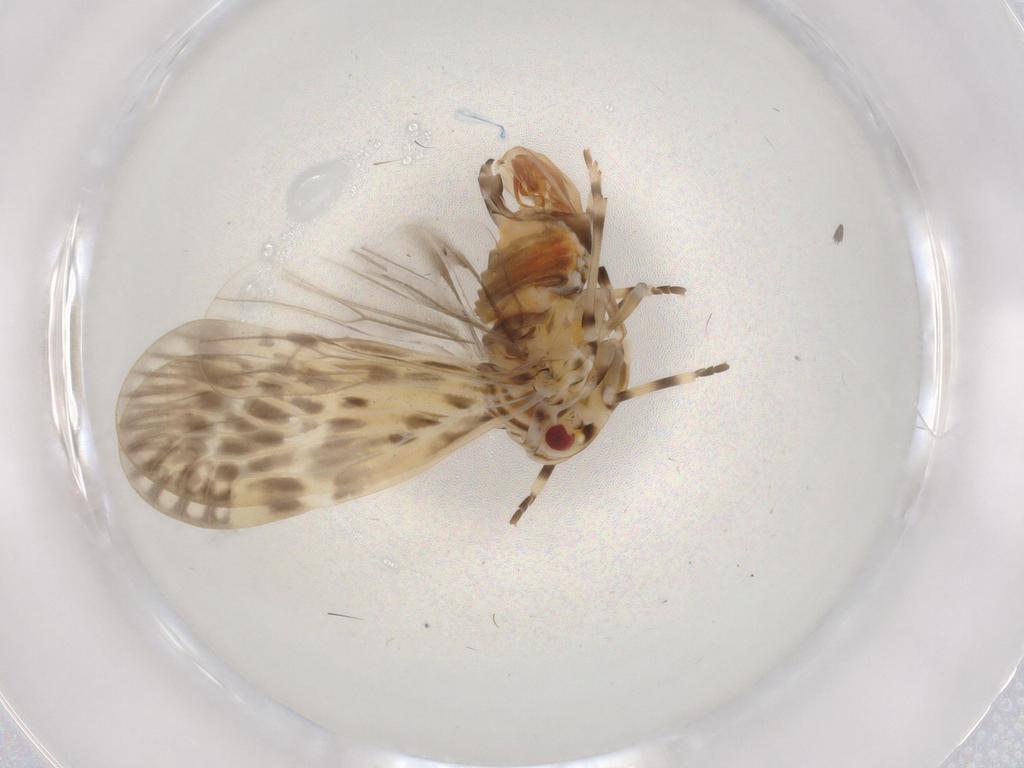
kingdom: Animalia
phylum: Arthropoda
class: Insecta
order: Hemiptera
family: Derbidae
